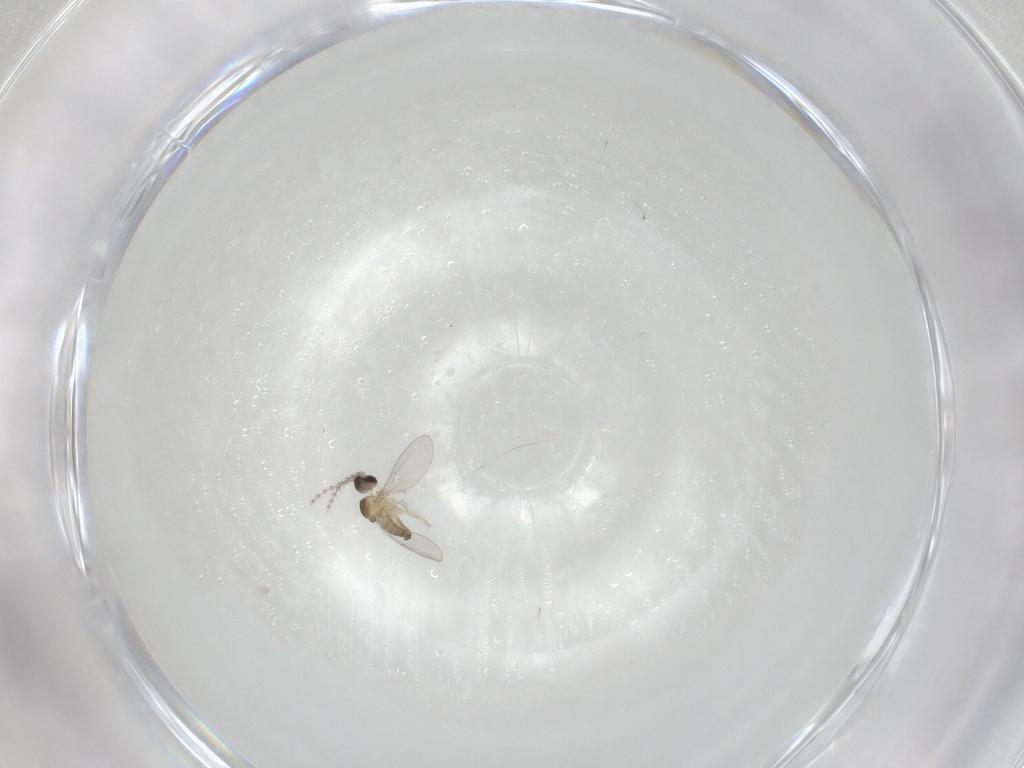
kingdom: Animalia
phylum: Arthropoda
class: Insecta
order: Diptera
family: Cecidomyiidae
